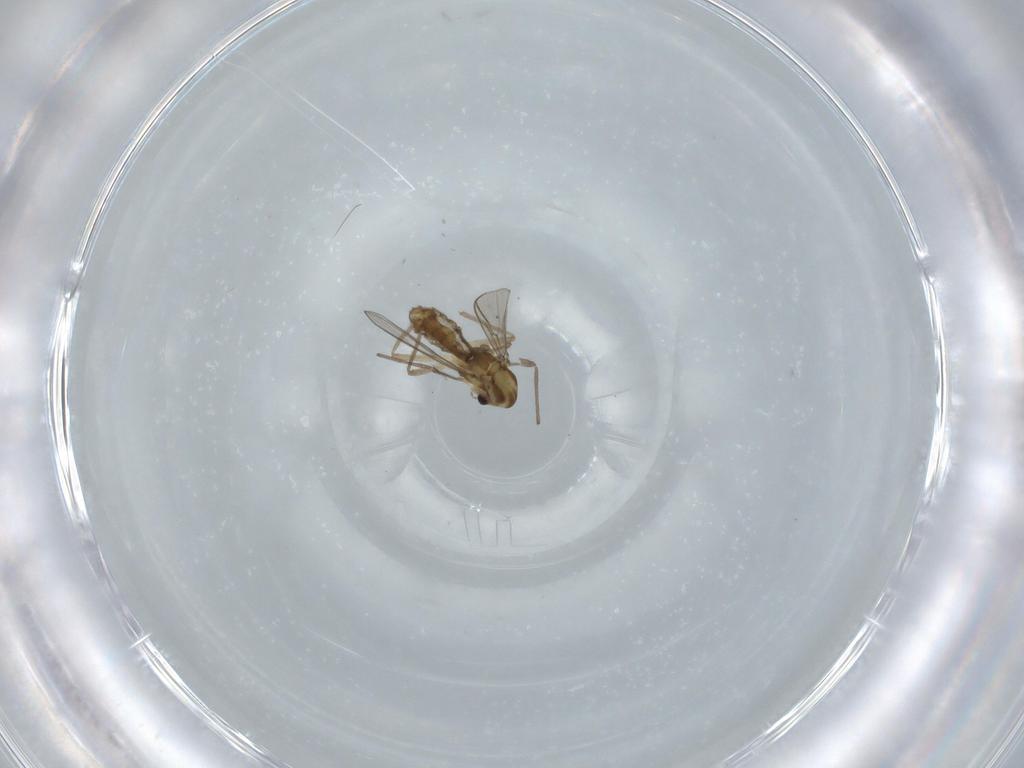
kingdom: Animalia
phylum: Arthropoda
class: Insecta
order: Diptera
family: Chironomidae
